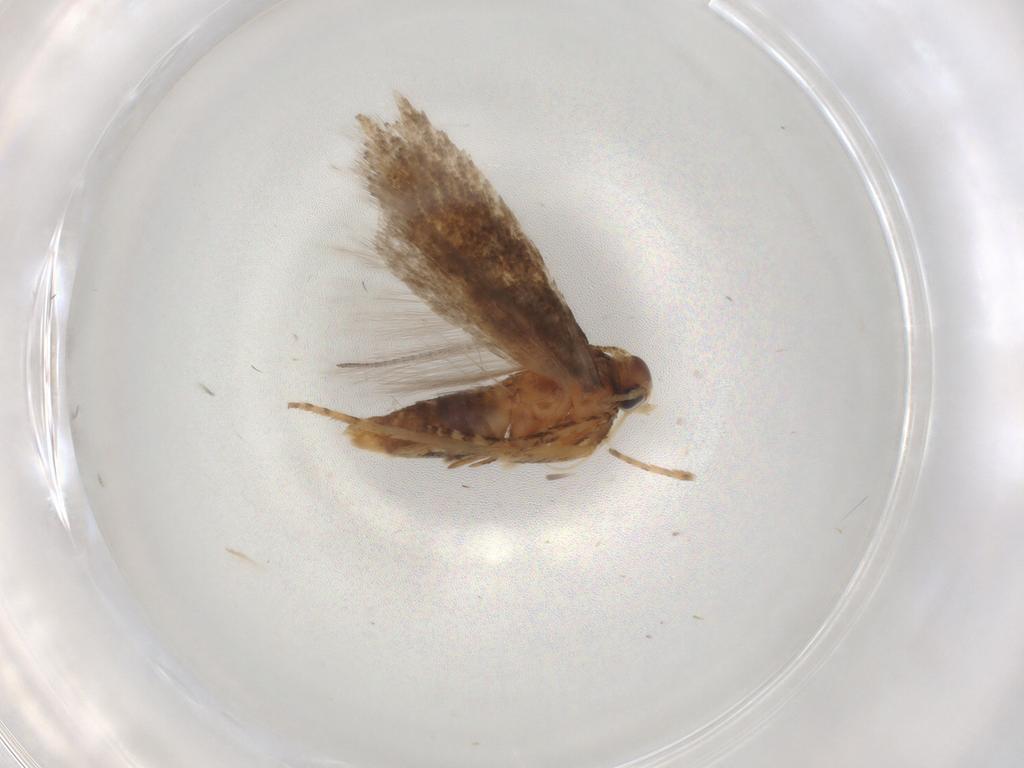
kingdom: Animalia
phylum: Arthropoda
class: Insecta
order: Lepidoptera
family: Gelechiidae
